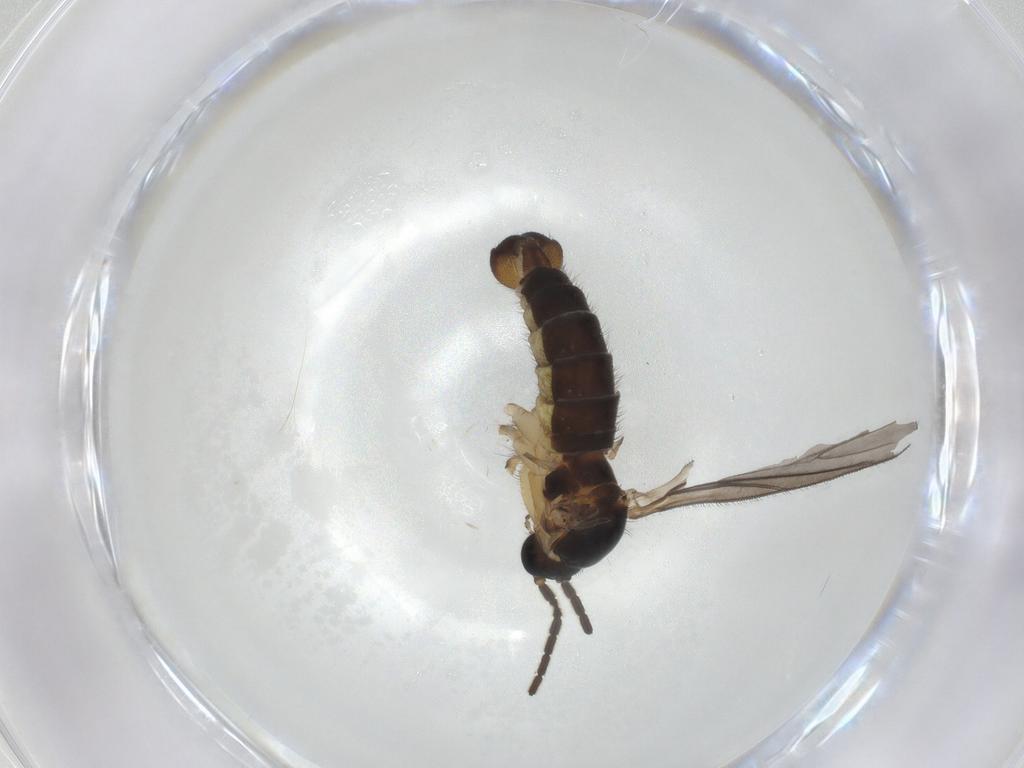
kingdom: Animalia
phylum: Arthropoda
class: Insecta
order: Diptera
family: Sciaridae
